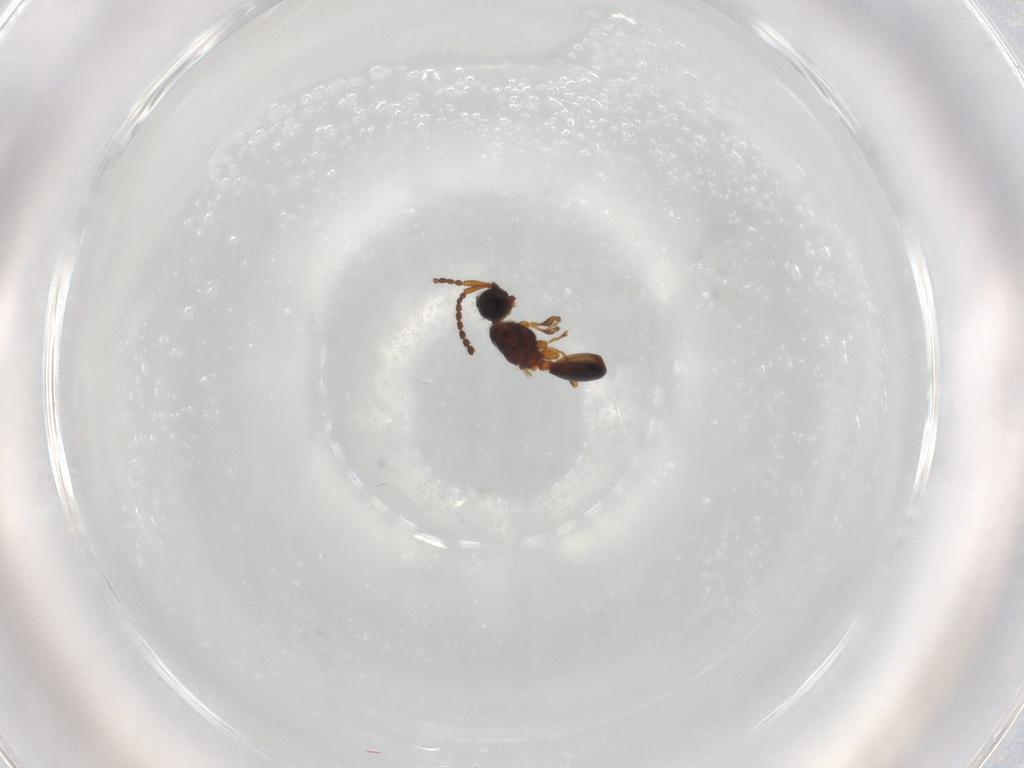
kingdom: Animalia
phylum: Arthropoda
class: Insecta
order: Hymenoptera
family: Diapriidae
